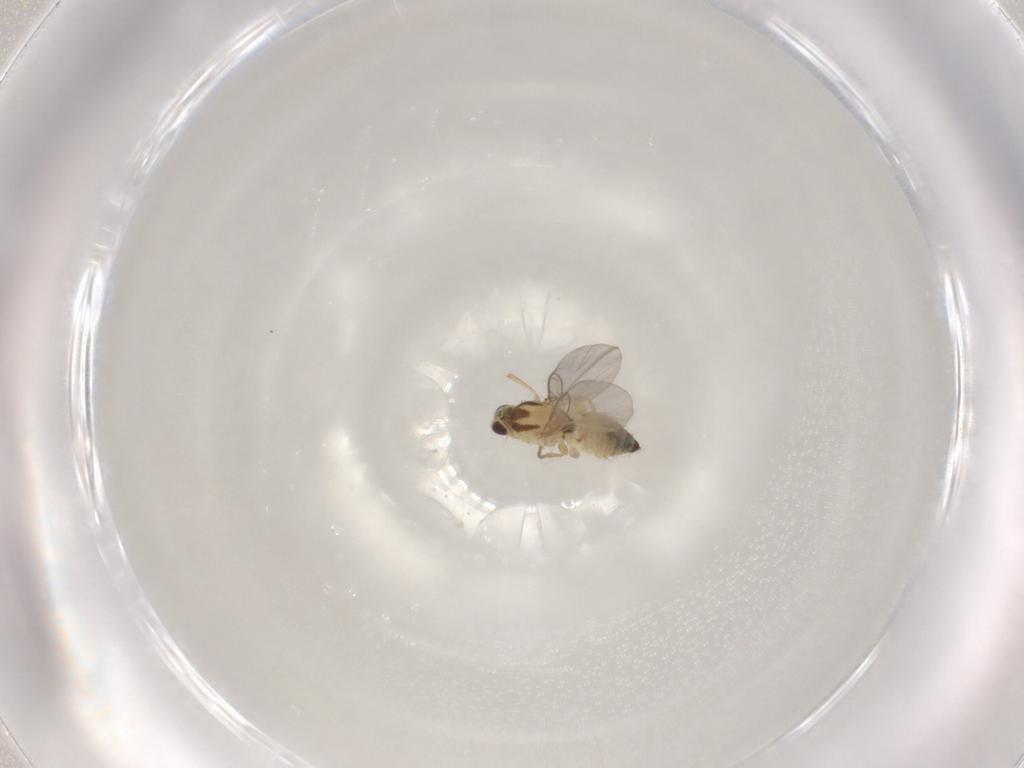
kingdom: Animalia
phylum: Arthropoda
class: Insecta
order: Diptera
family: Agromyzidae
